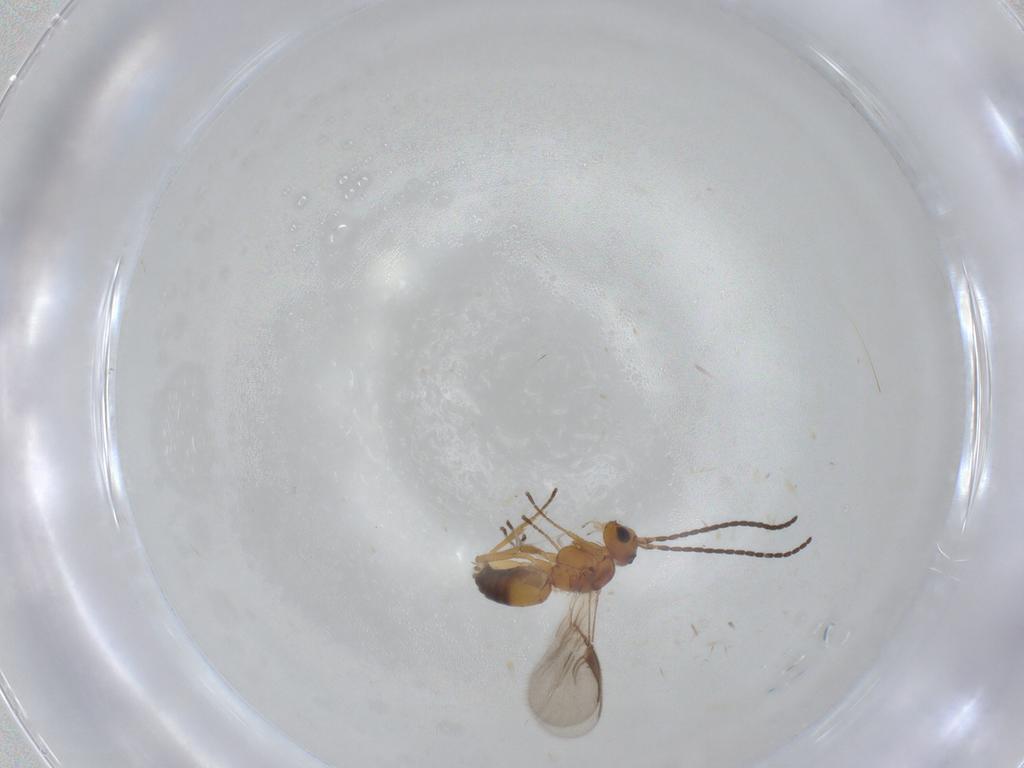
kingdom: Animalia
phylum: Arthropoda
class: Insecta
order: Hymenoptera
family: Braconidae
